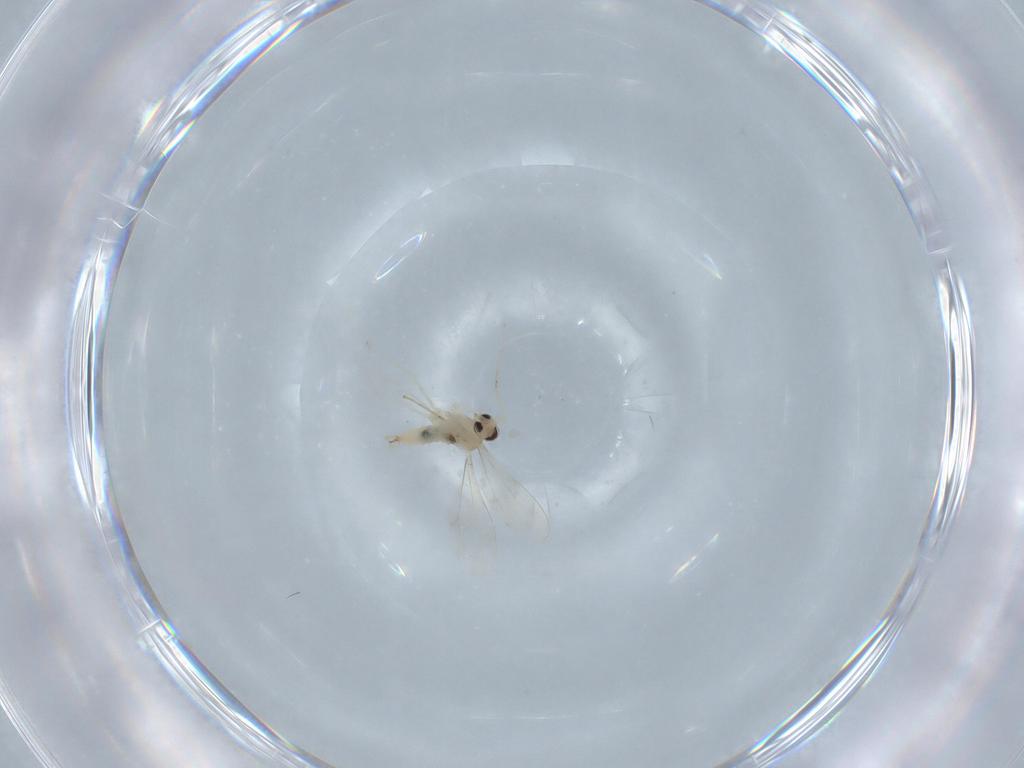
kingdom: Animalia
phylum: Arthropoda
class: Insecta
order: Diptera
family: Cecidomyiidae
